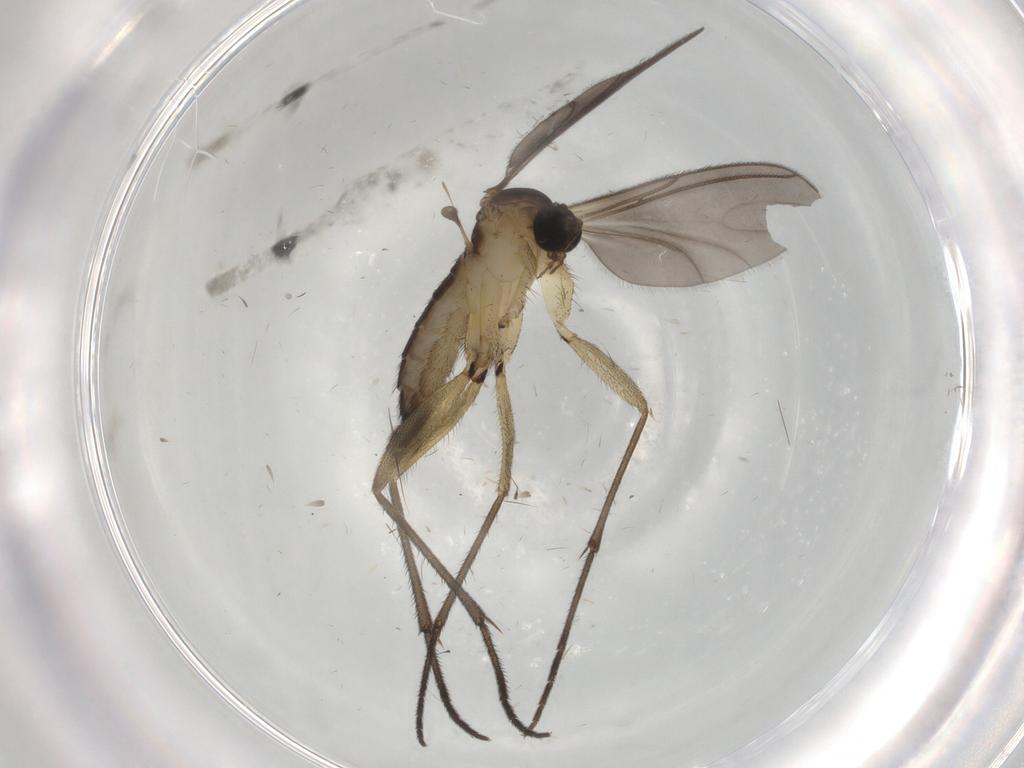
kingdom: Animalia
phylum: Arthropoda
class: Insecta
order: Diptera
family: Sciaridae
